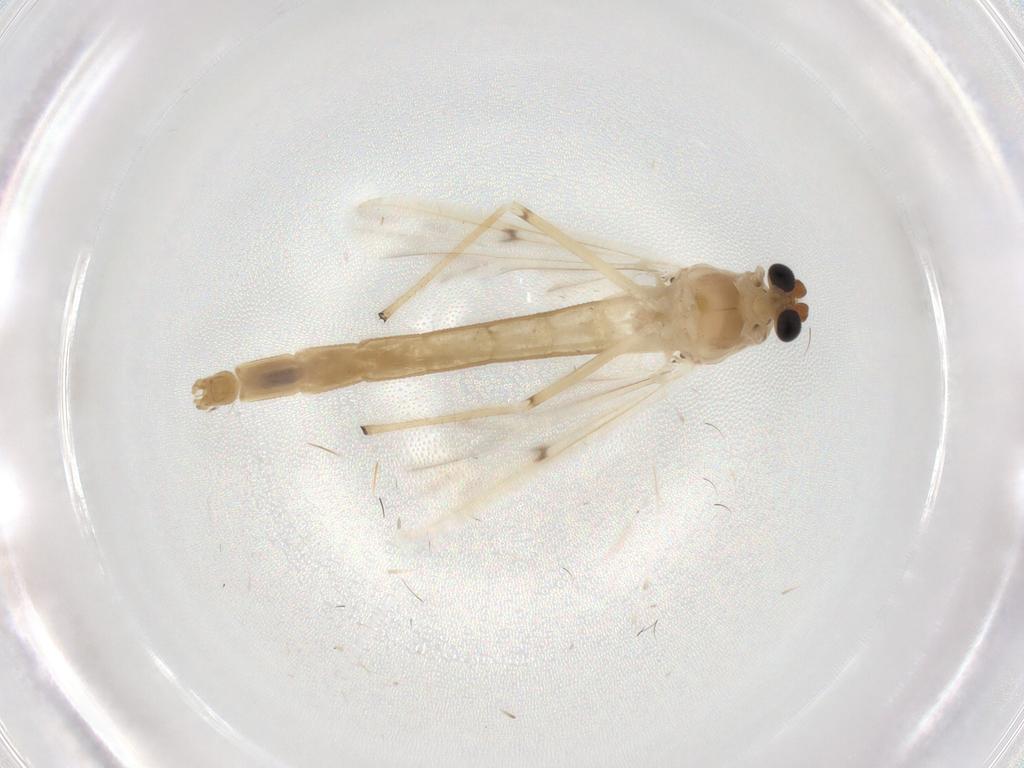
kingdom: Animalia
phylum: Arthropoda
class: Insecta
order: Diptera
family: Chironomidae
